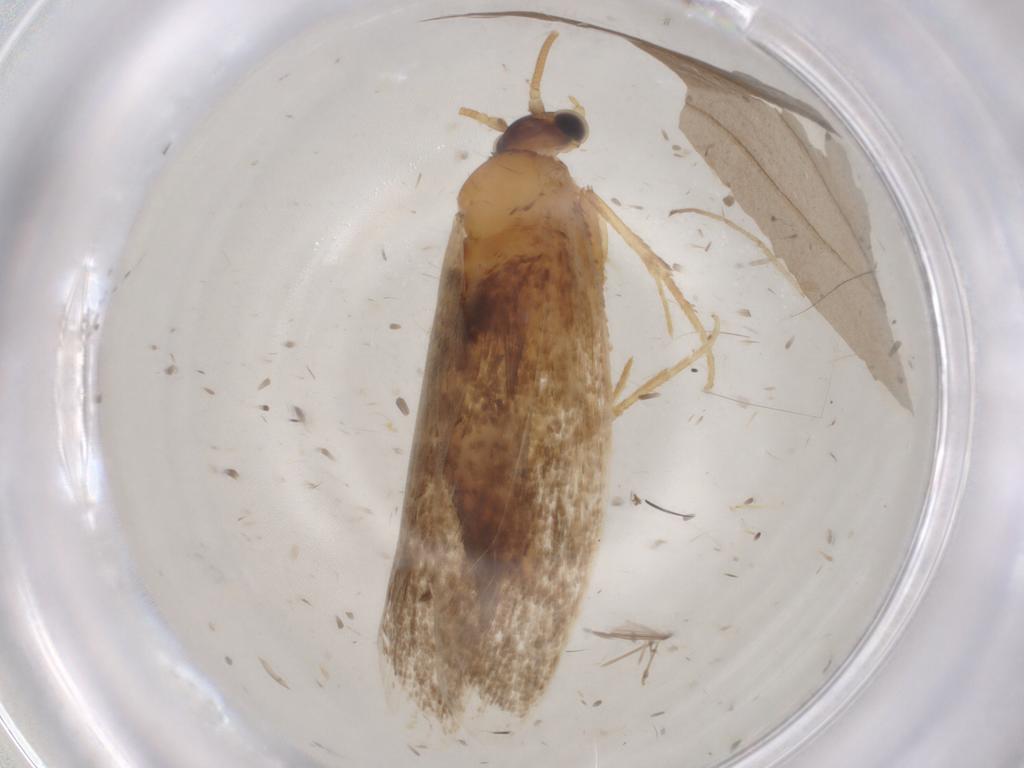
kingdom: Animalia
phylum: Arthropoda
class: Insecta
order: Lepidoptera
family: Nepticulidae
